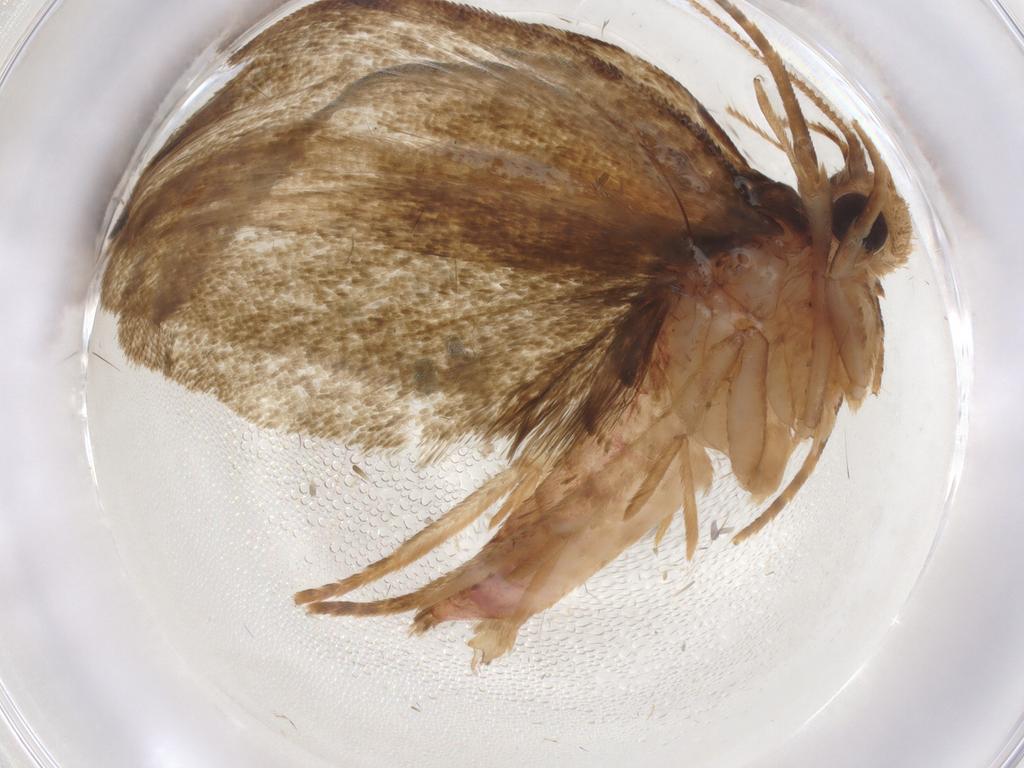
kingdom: Animalia
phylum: Arthropoda
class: Insecta
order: Lepidoptera
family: Geometridae
